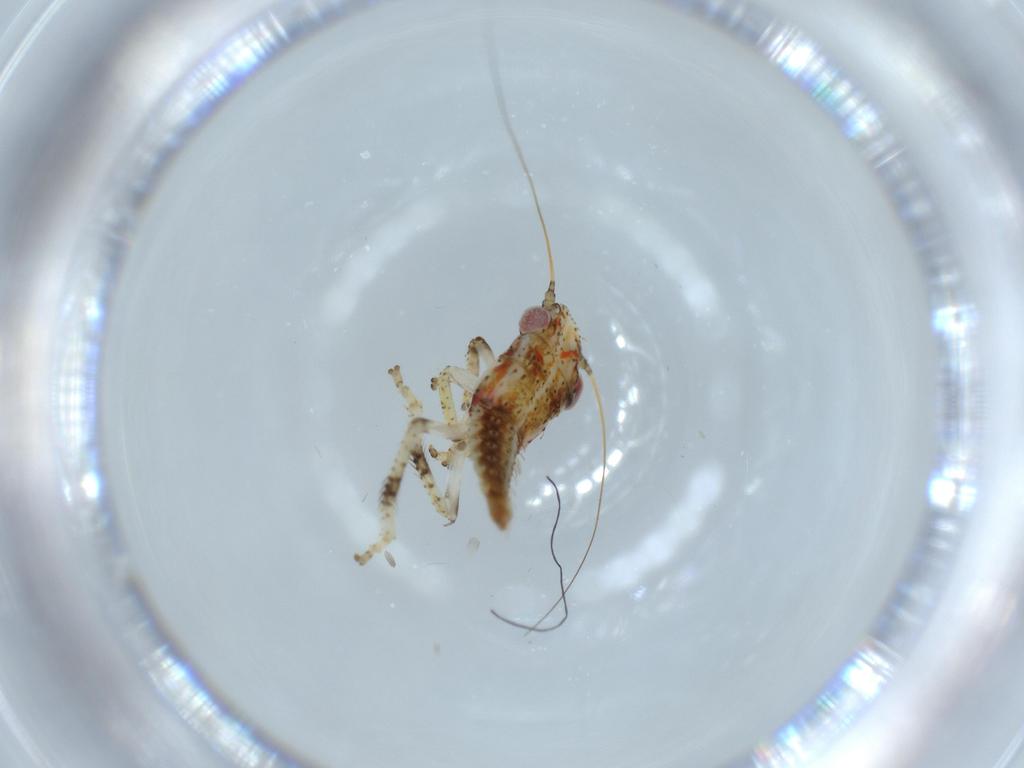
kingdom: Animalia
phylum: Arthropoda
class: Insecta
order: Hemiptera
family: Cicadellidae
